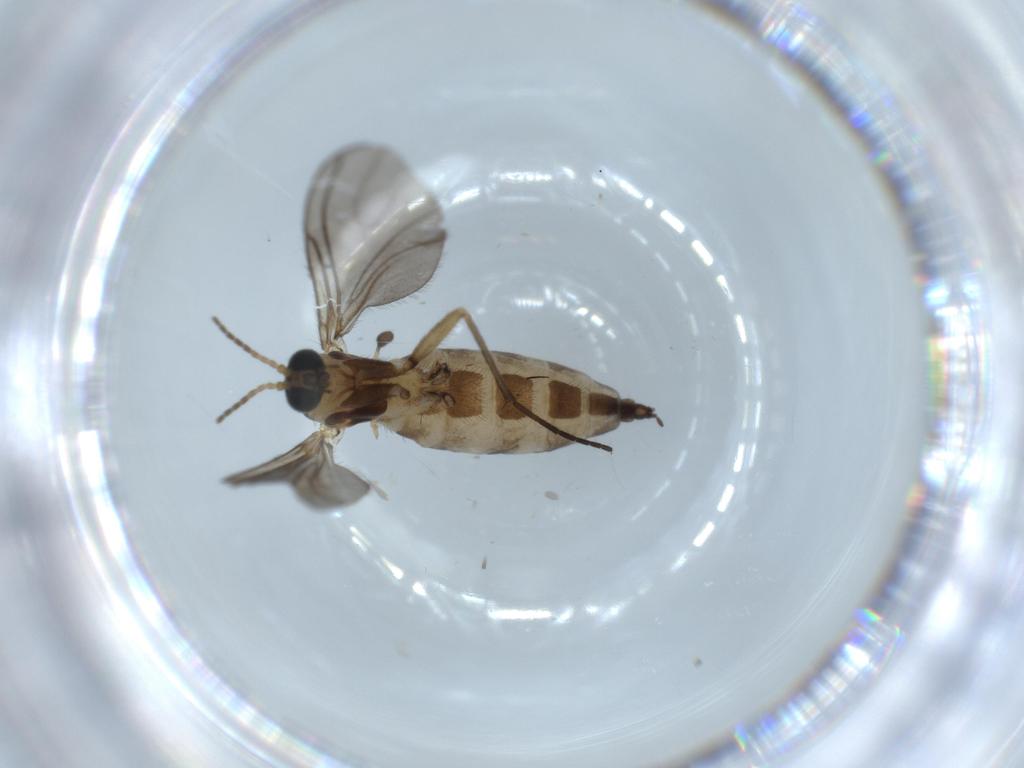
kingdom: Animalia
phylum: Arthropoda
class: Insecta
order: Diptera
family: Sciaridae
